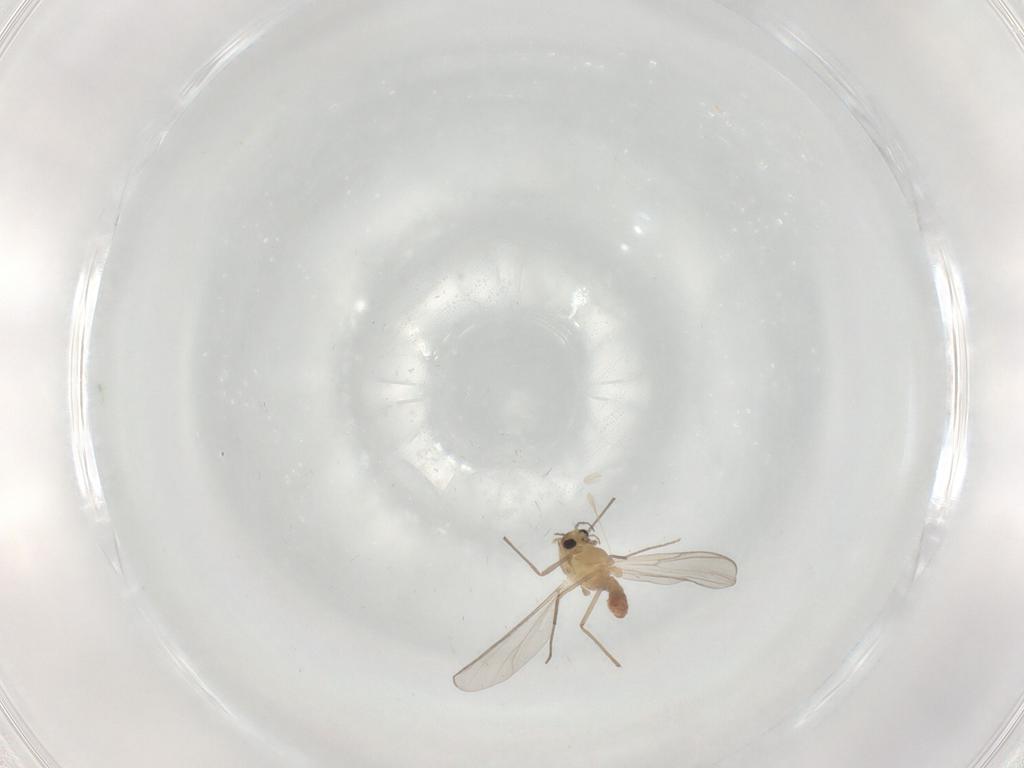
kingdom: Animalia
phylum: Arthropoda
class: Insecta
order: Diptera
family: Chironomidae
